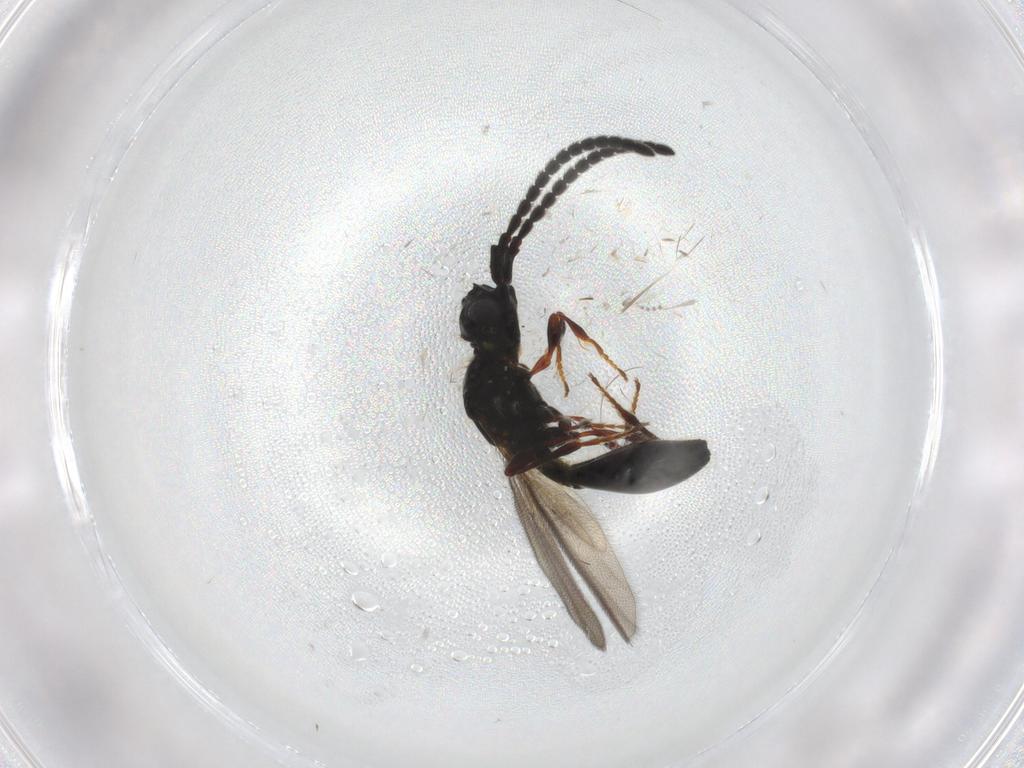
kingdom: Animalia
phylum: Arthropoda
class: Insecta
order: Hymenoptera
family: Diapriidae
